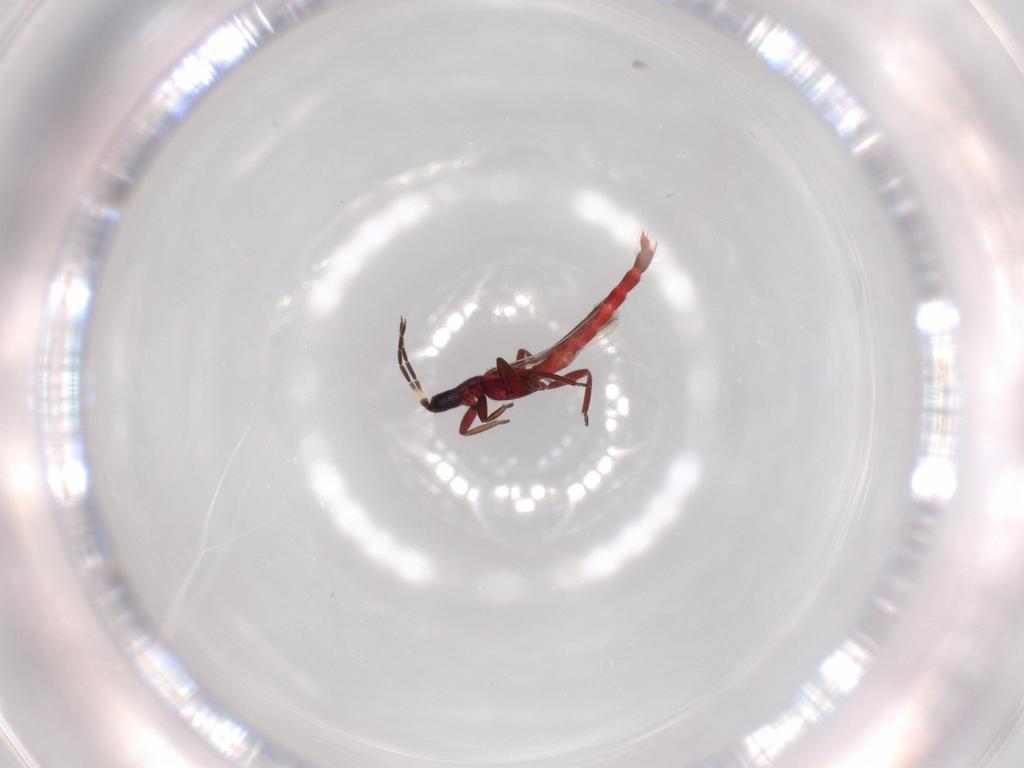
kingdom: Animalia
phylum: Arthropoda
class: Insecta
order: Thysanoptera
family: Aeolothripidae
